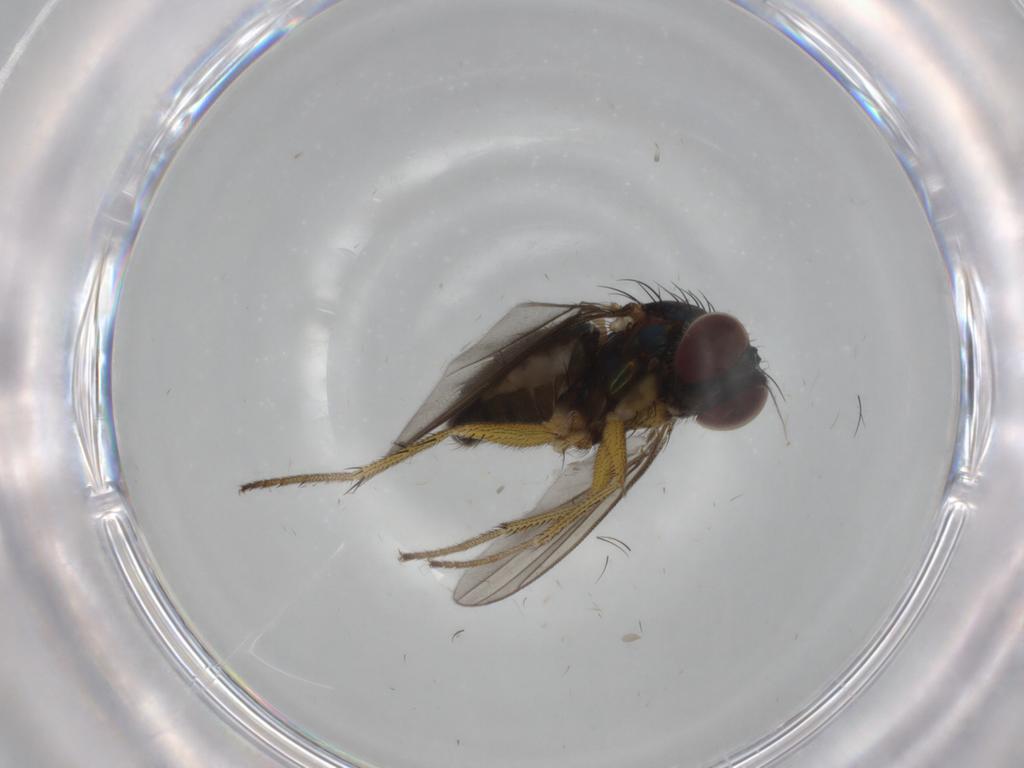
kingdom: Animalia
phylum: Arthropoda
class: Insecta
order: Diptera
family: Dolichopodidae
